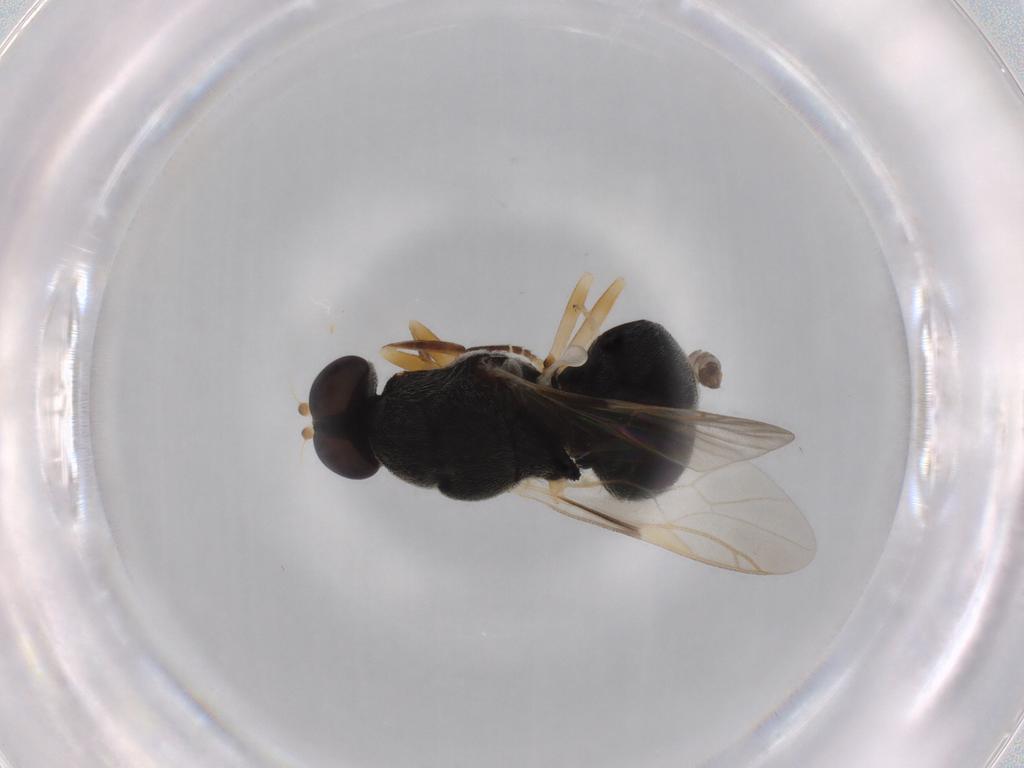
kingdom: Animalia
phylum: Arthropoda
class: Insecta
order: Diptera
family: Stratiomyidae
